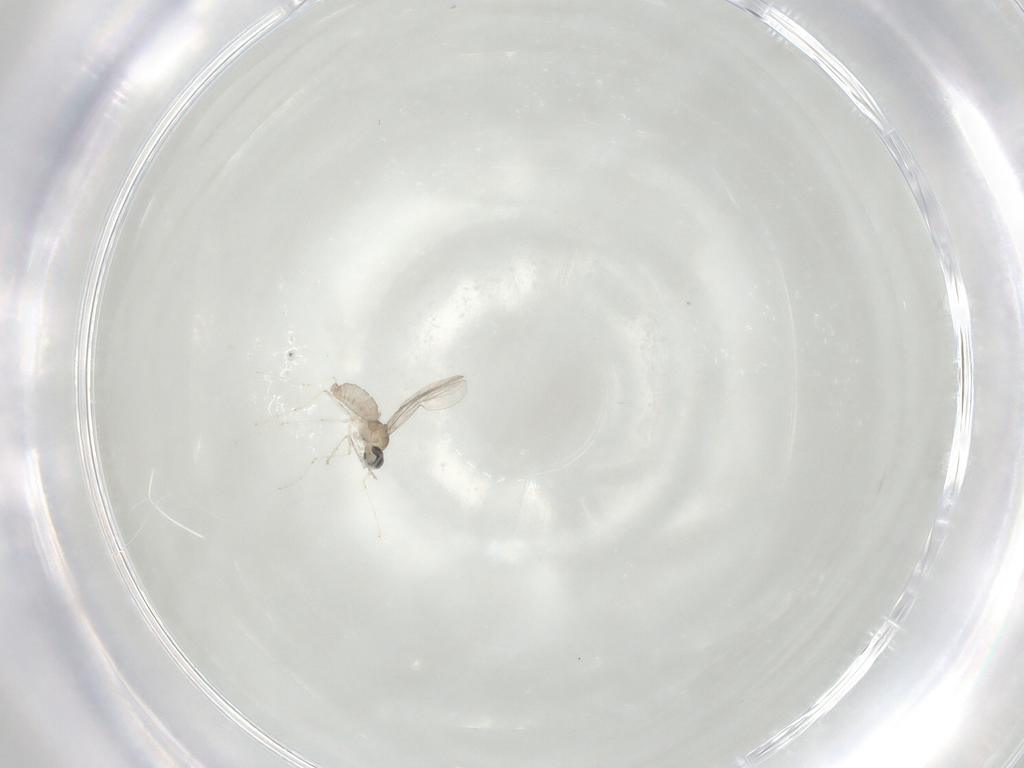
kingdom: Animalia
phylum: Arthropoda
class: Insecta
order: Diptera
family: Cecidomyiidae
